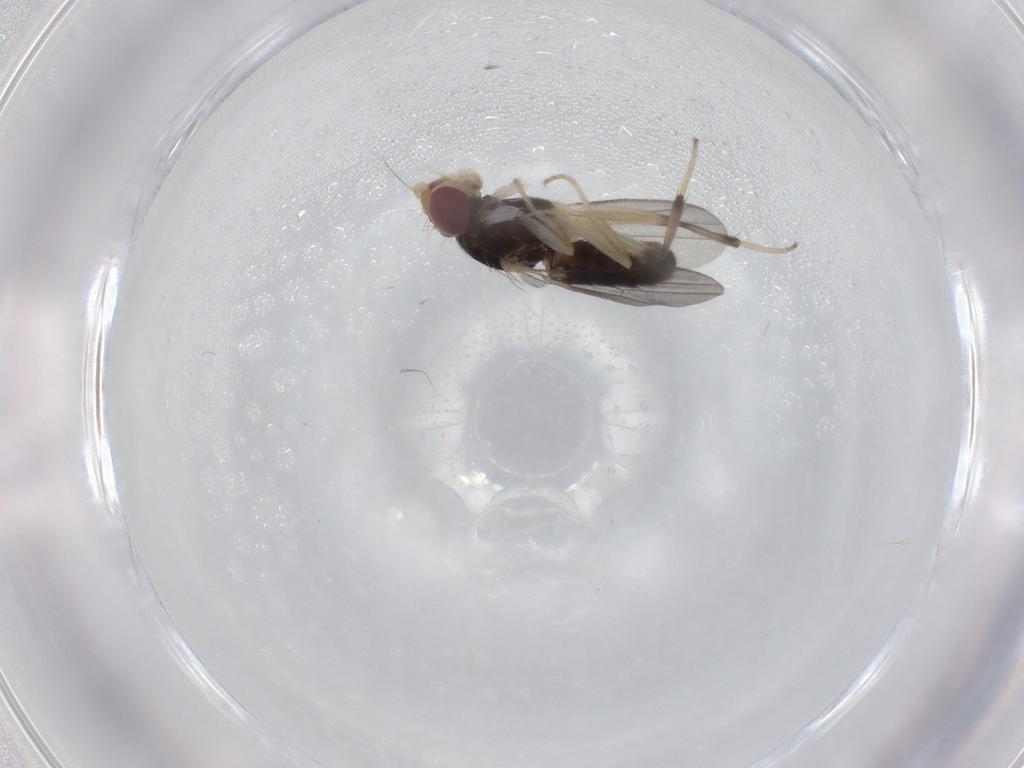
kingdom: Animalia
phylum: Arthropoda
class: Insecta
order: Diptera
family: Clusiidae
